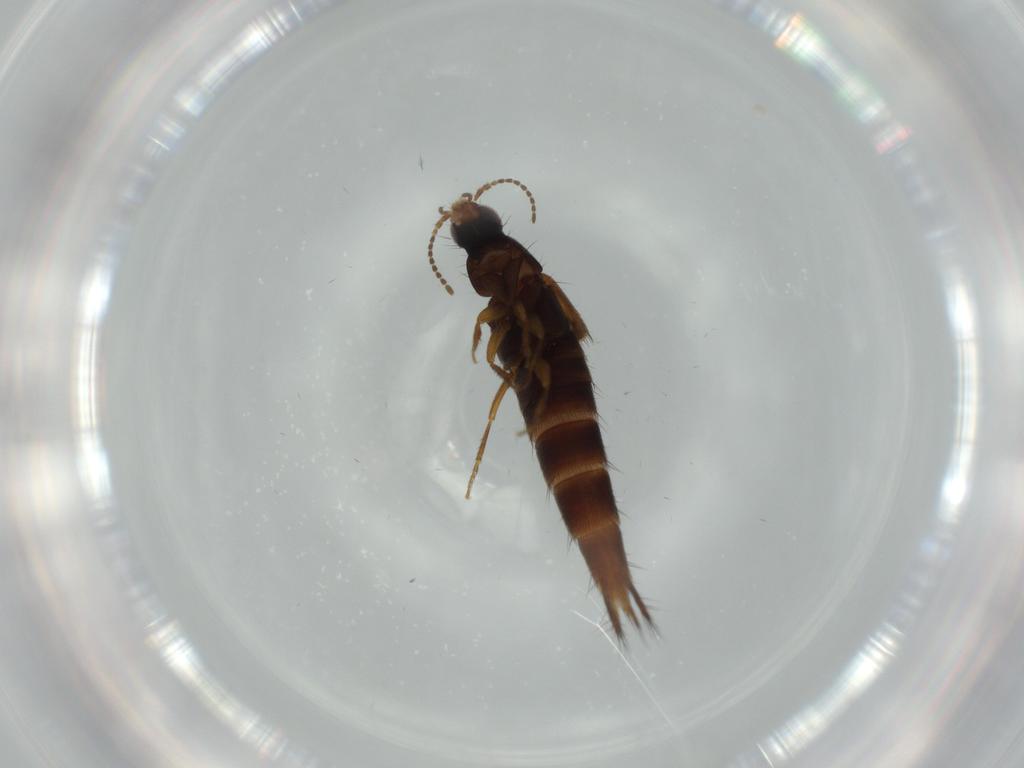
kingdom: Animalia
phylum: Arthropoda
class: Insecta
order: Coleoptera
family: Staphylinidae
